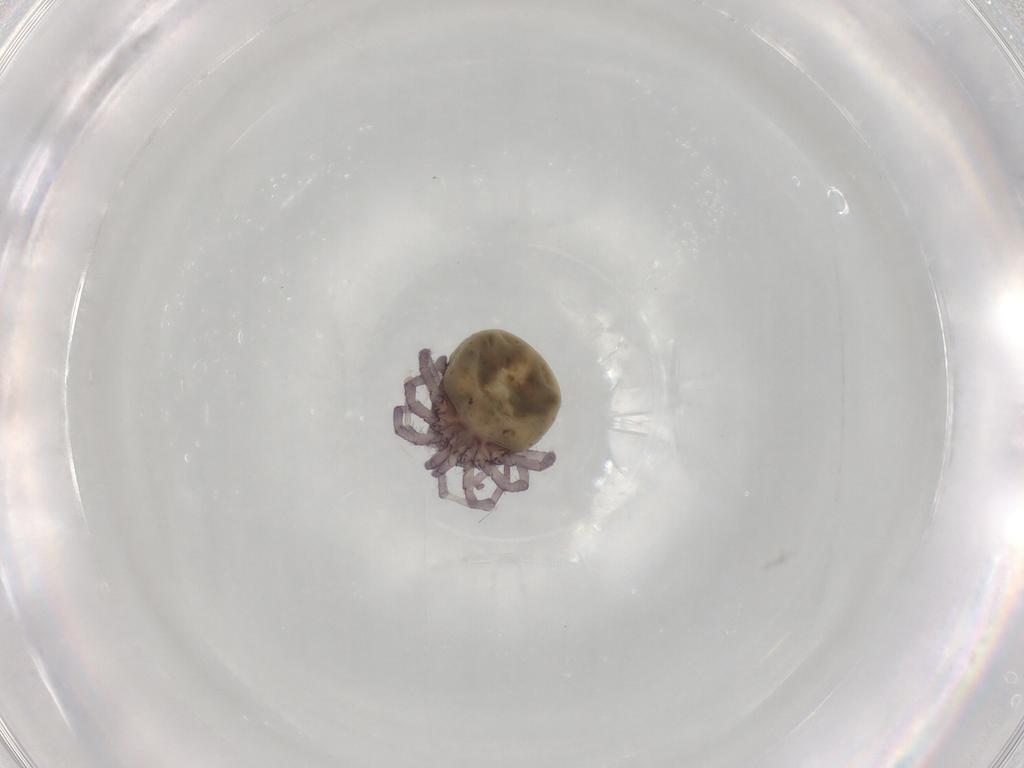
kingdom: Animalia
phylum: Arthropoda
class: Arachnida
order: Trombidiformes
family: Lebertiidae
